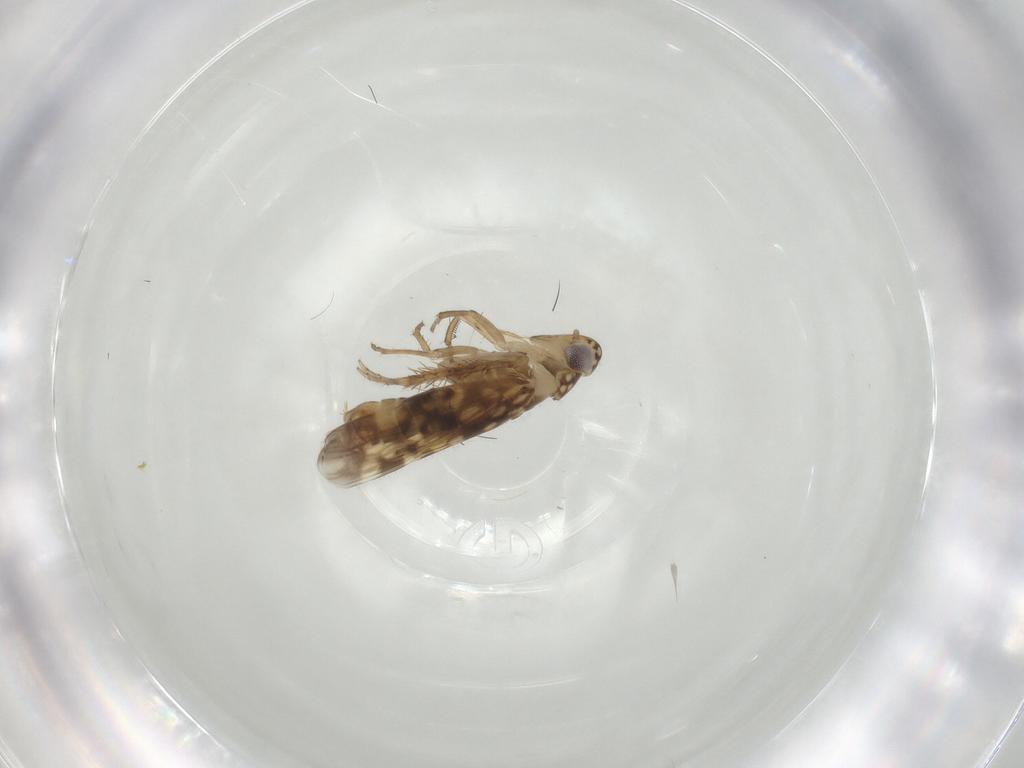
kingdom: Animalia
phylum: Arthropoda
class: Insecta
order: Hemiptera
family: Cicadellidae
